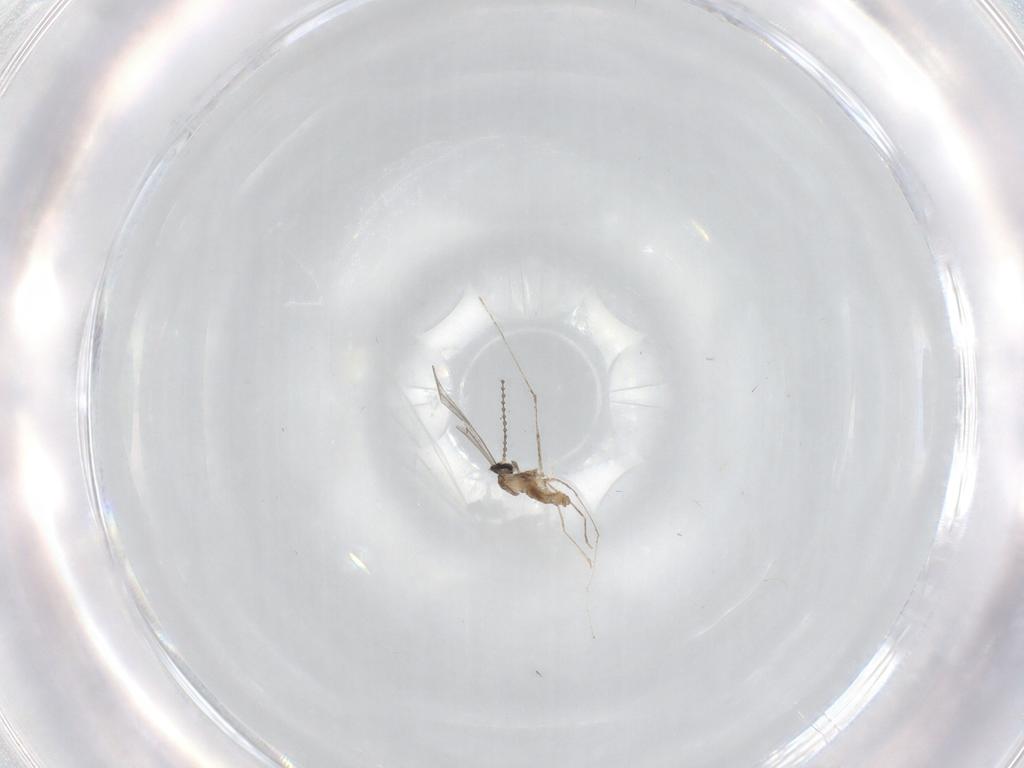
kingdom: Animalia
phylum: Arthropoda
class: Insecta
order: Diptera
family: Cecidomyiidae
